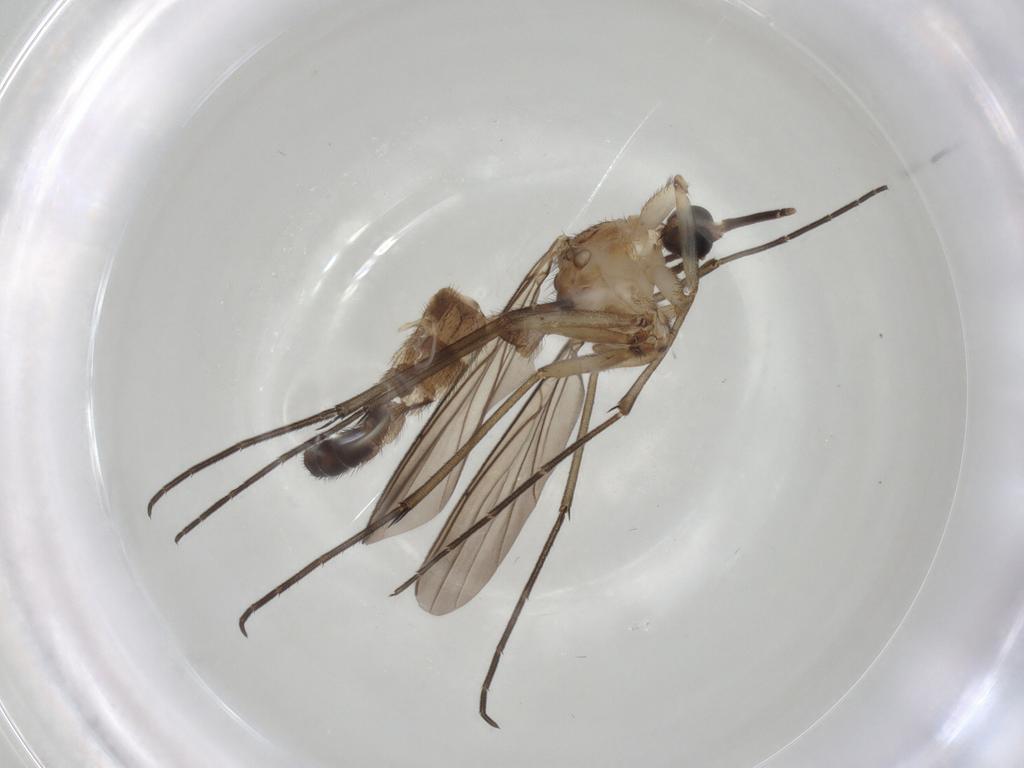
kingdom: Animalia
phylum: Arthropoda
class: Insecta
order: Diptera
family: Keroplatidae
